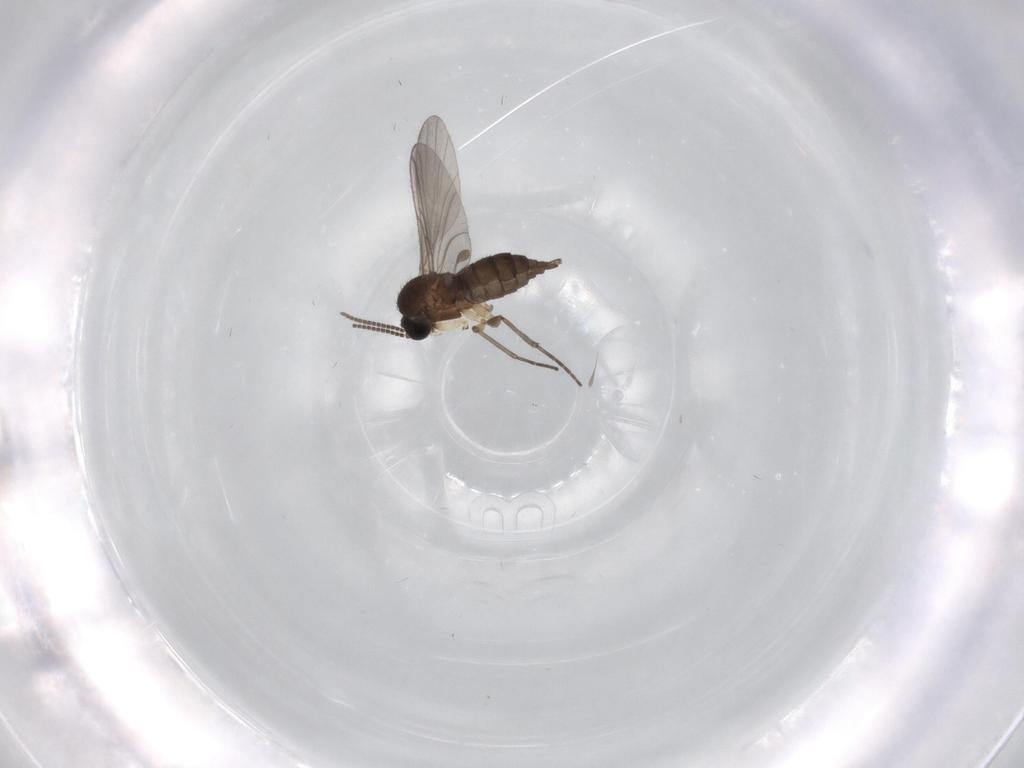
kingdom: Animalia
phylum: Arthropoda
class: Insecta
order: Diptera
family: Sciaridae
